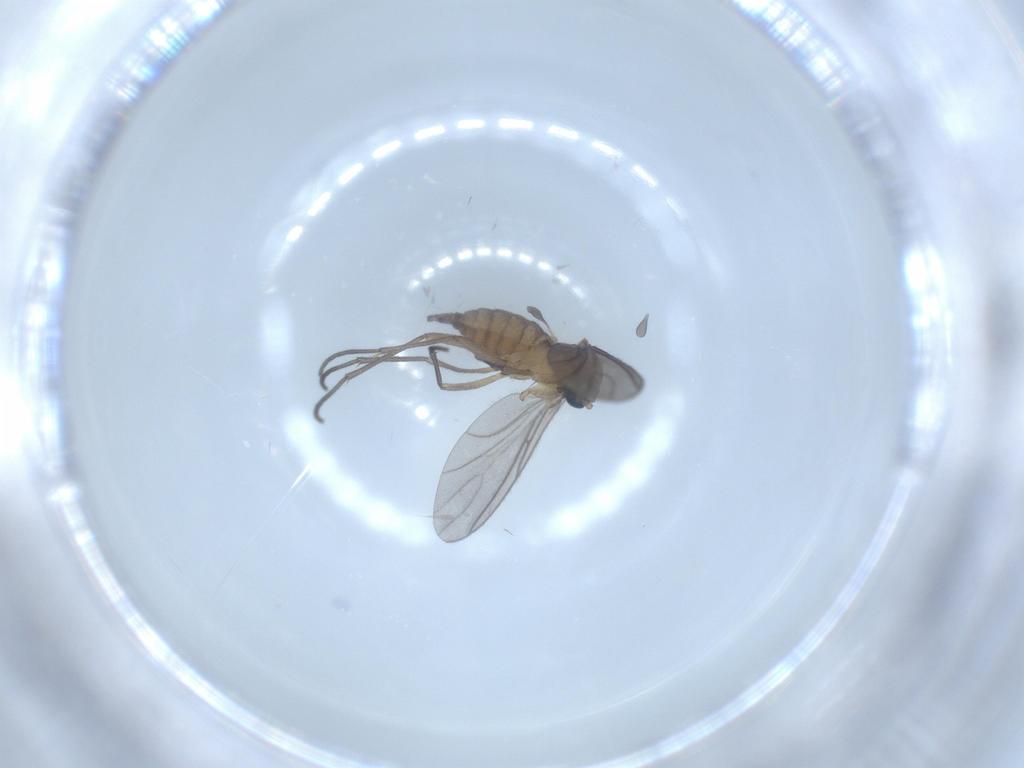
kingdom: Animalia
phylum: Arthropoda
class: Insecta
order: Diptera
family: Sciaridae
